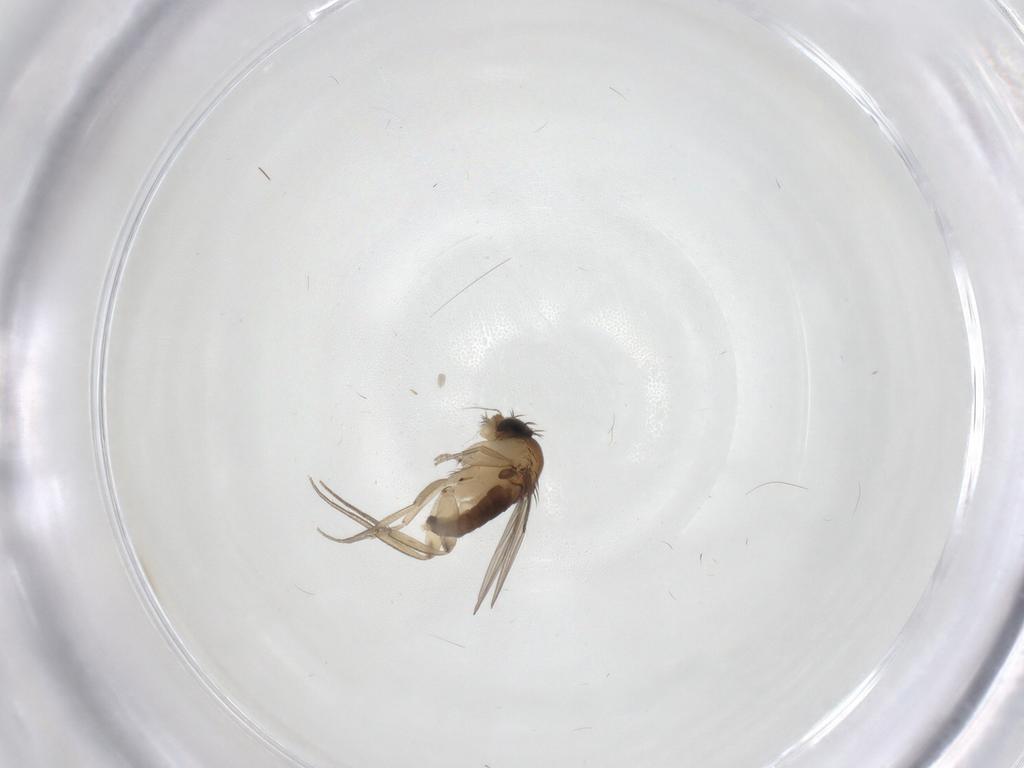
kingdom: Animalia
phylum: Arthropoda
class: Insecta
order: Diptera
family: Phoridae
